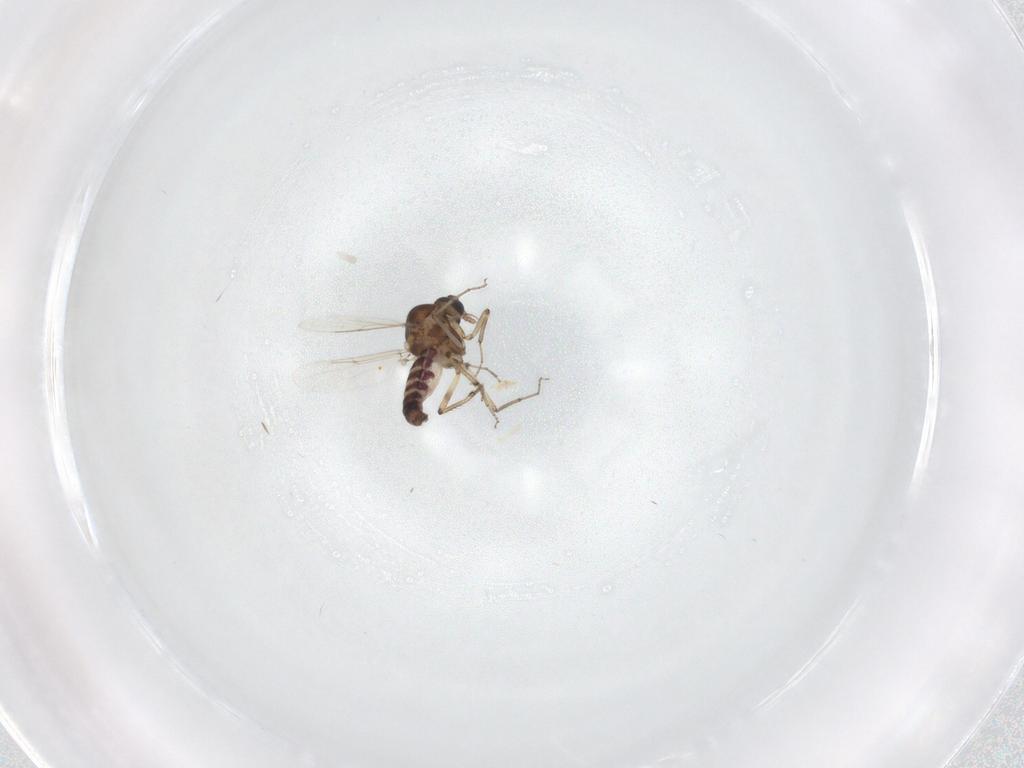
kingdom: Animalia
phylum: Arthropoda
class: Insecta
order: Diptera
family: Ceratopogonidae
